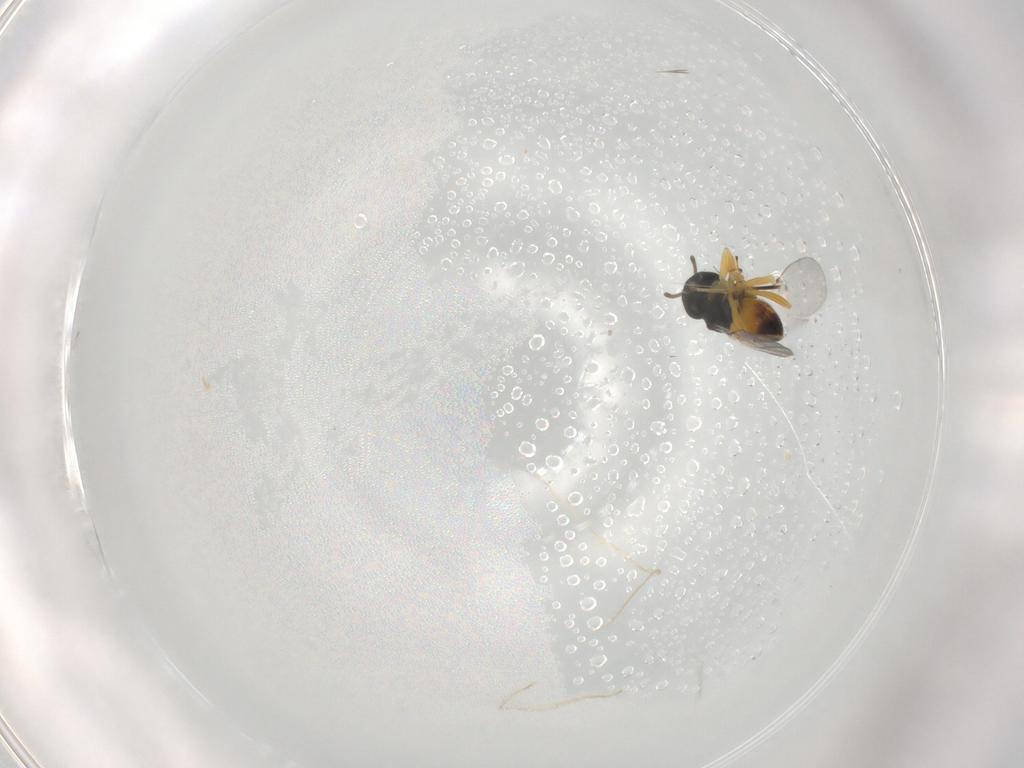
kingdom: Animalia
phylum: Arthropoda
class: Insecta
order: Hymenoptera
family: Encyrtidae
